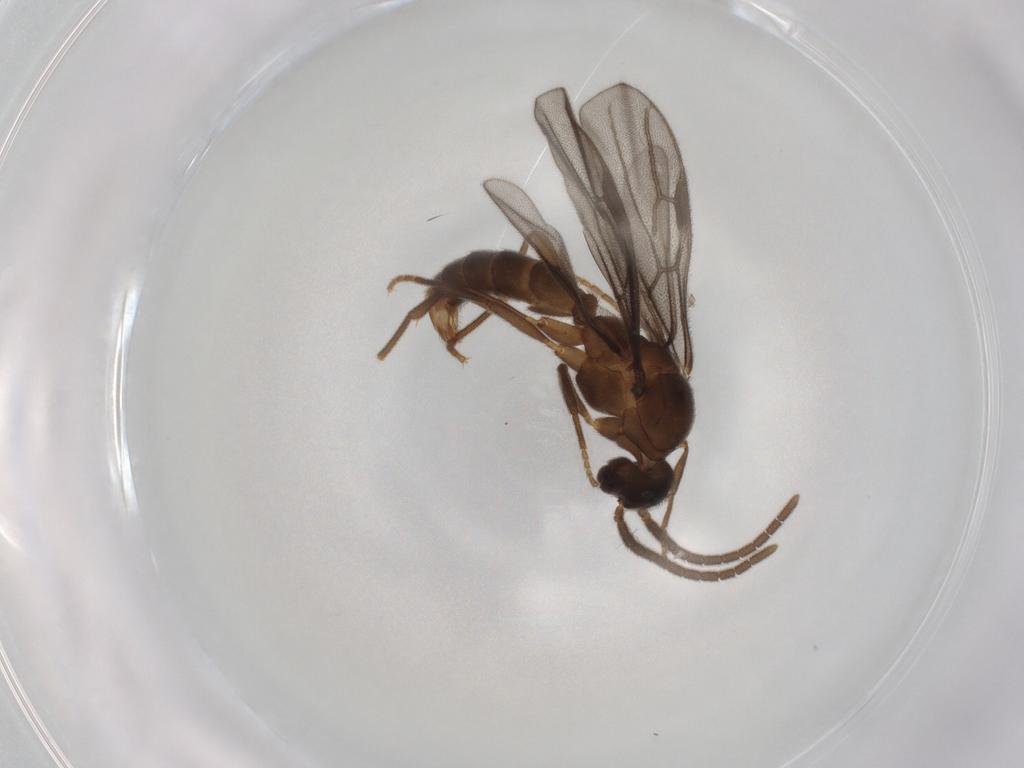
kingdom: Animalia
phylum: Arthropoda
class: Insecta
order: Hymenoptera
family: Formicidae
